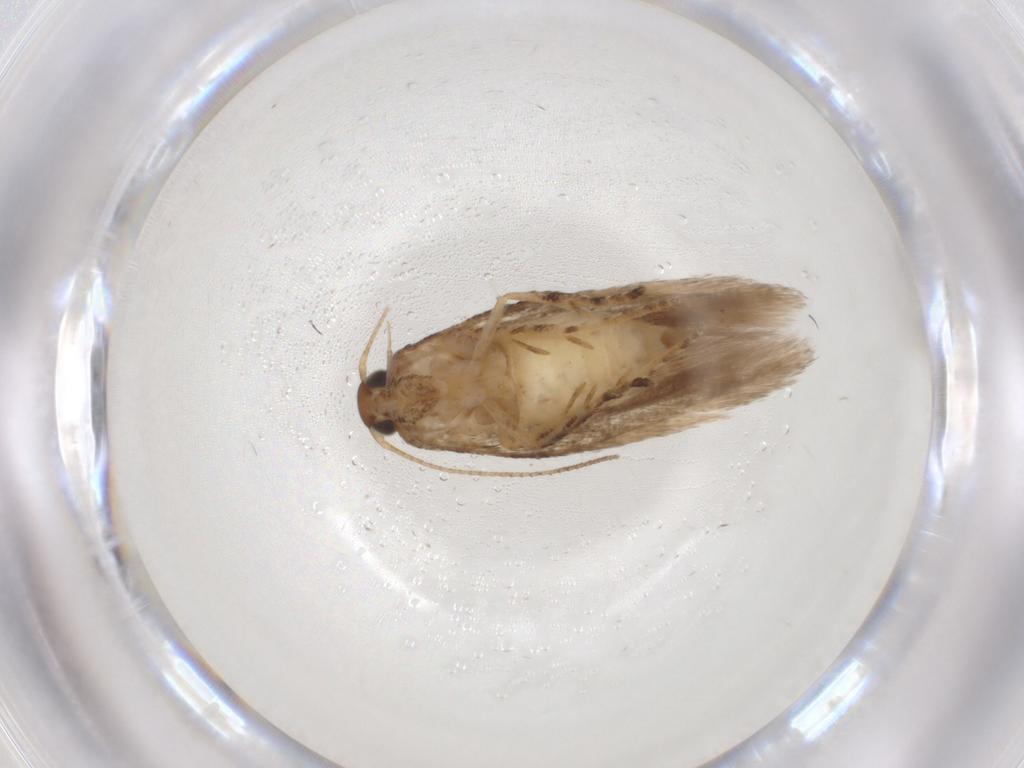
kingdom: Animalia
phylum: Arthropoda
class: Insecta
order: Lepidoptera
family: Gelechiidae
